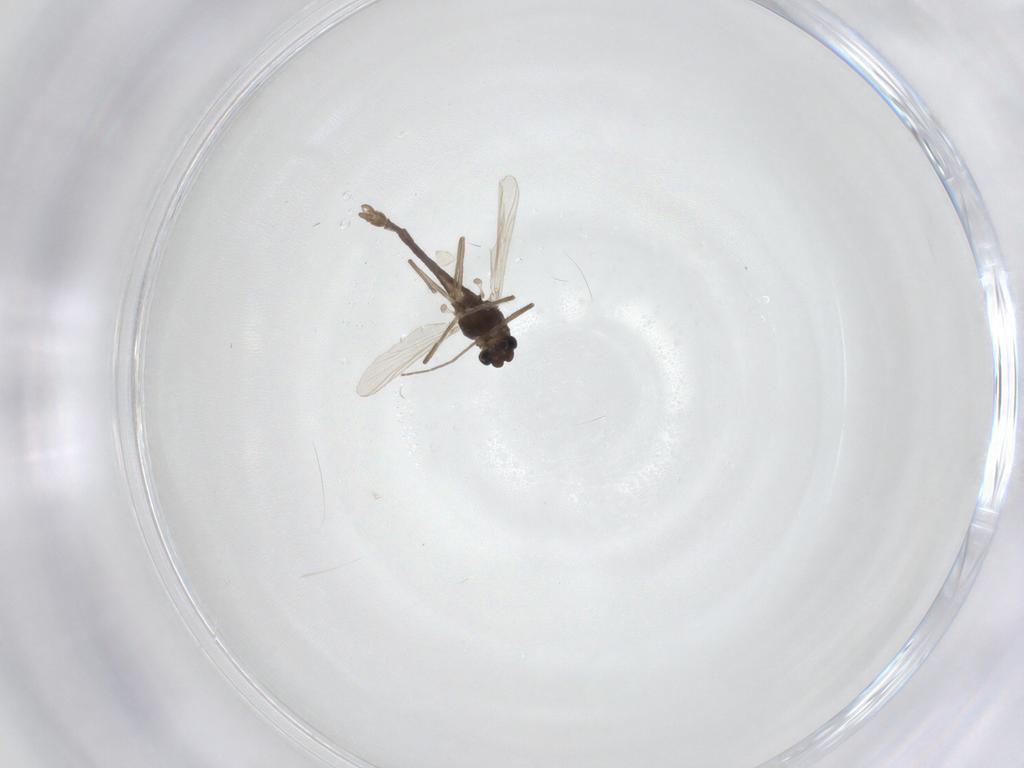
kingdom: Animalia
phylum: Arthropoda
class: Insecta
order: Diptera
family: Chironomidae
